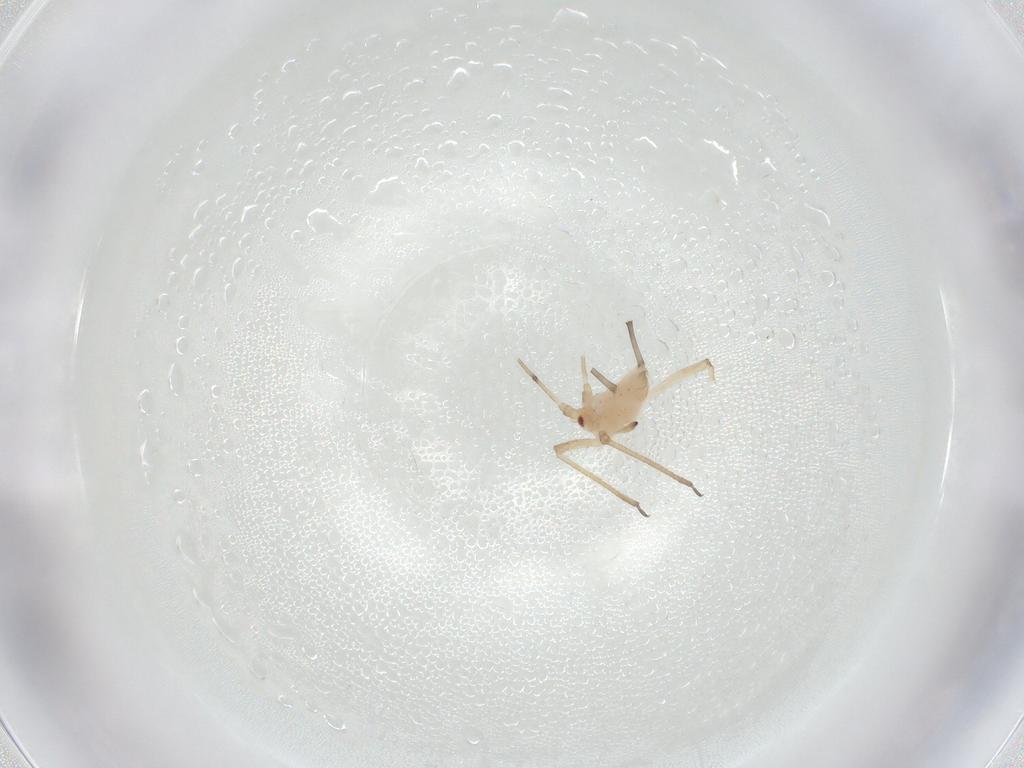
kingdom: Animalia
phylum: Arthropoda
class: Insecta
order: Hemiptera
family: Aphididae
